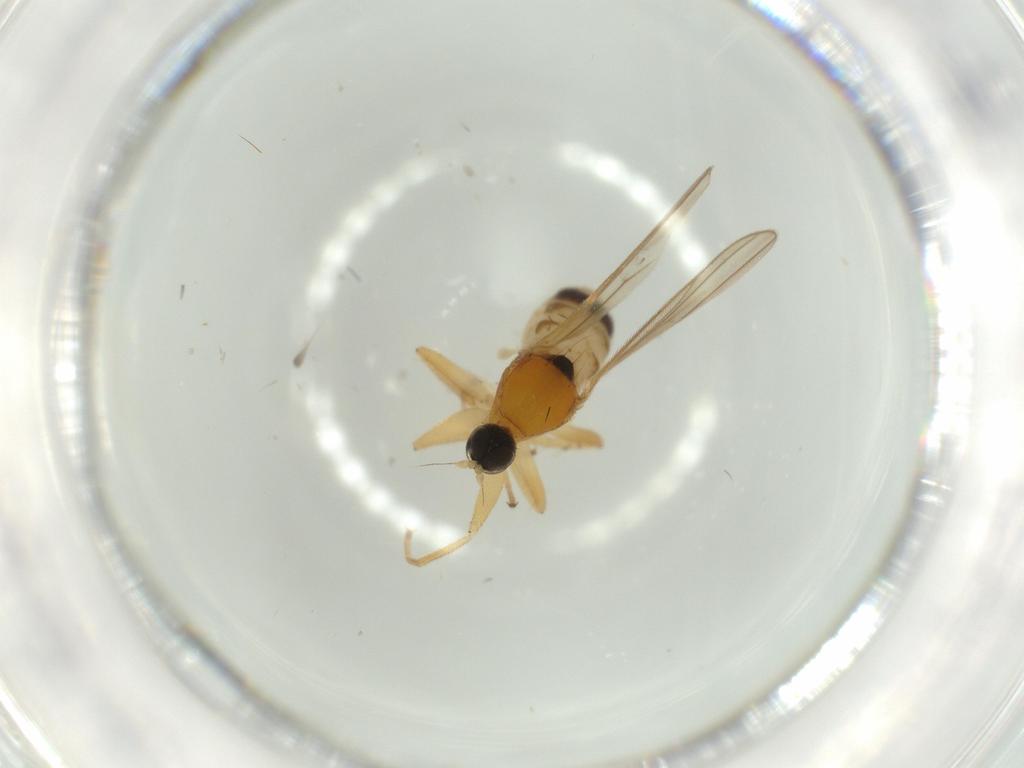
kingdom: Animalia
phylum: Arthropoda
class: Insecta
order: Diptera
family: Hybotidae
